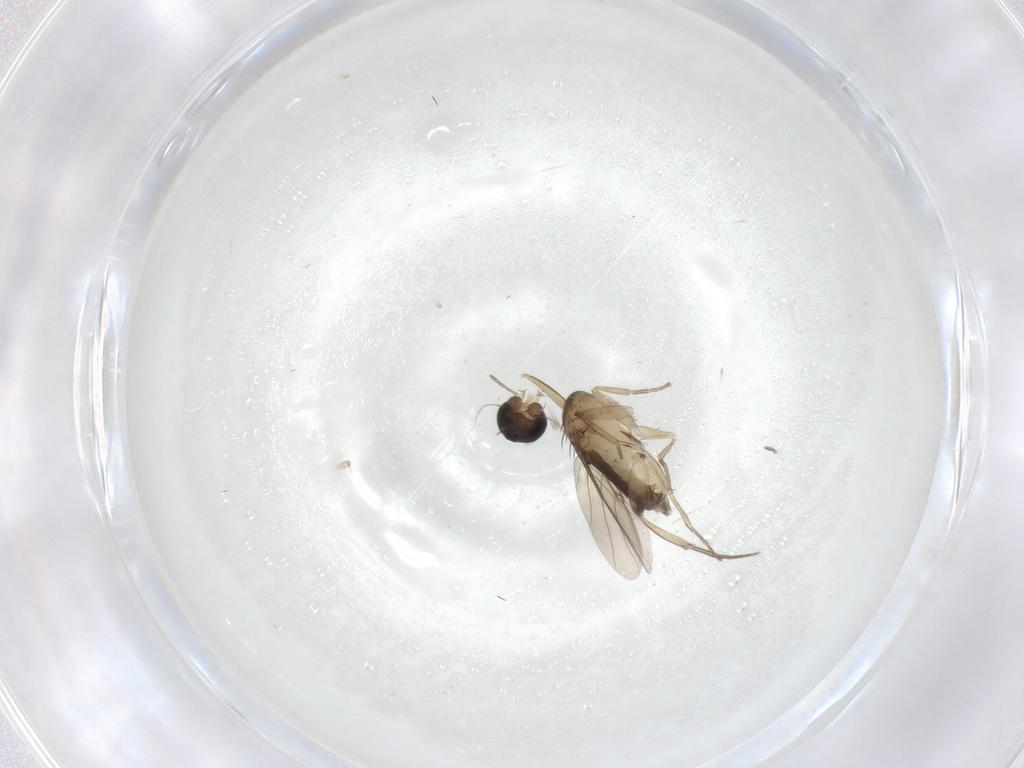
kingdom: Animalia
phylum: Arthropoda
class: Insecta
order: Diptera
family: Phoridae
